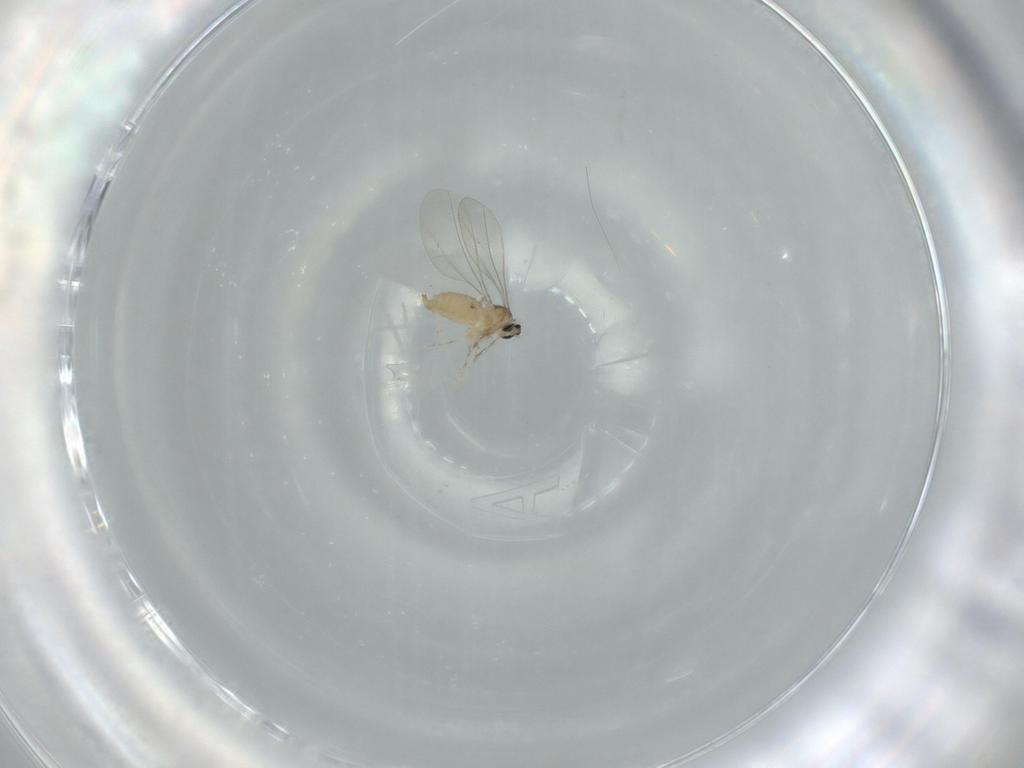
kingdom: Animalia
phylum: Arthropoda
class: Insecta
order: Diptera
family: Cecidomyiidae
